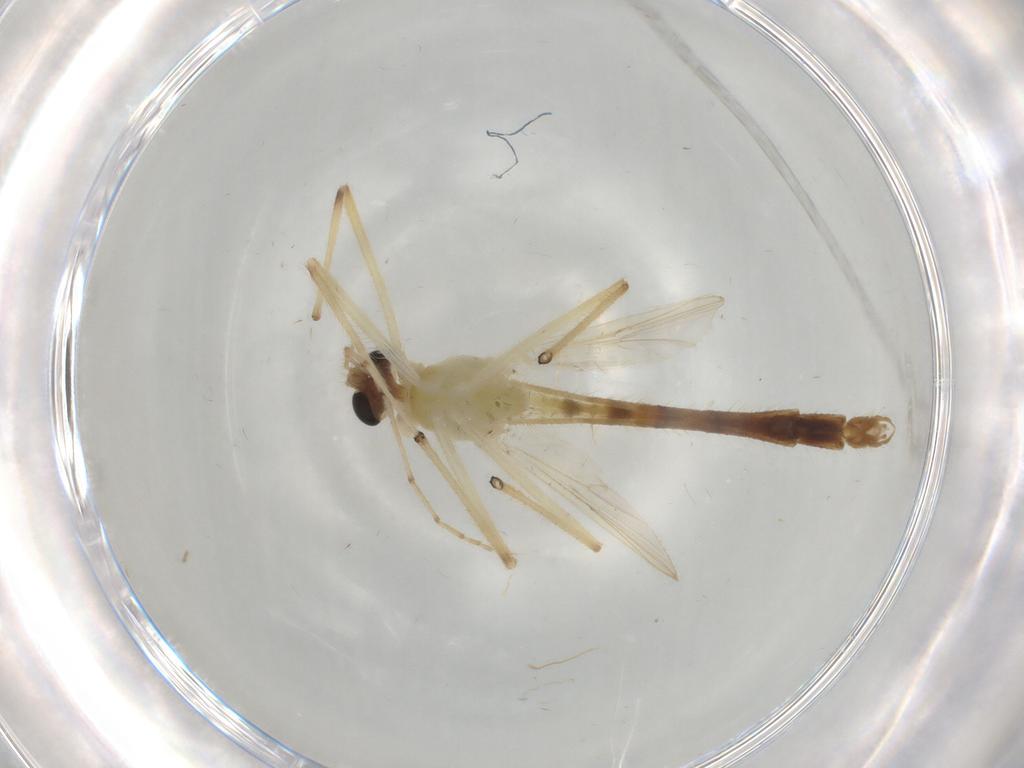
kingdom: Animalia
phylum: Arthropoda
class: Insecta
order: Diptera
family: Chironomidae
